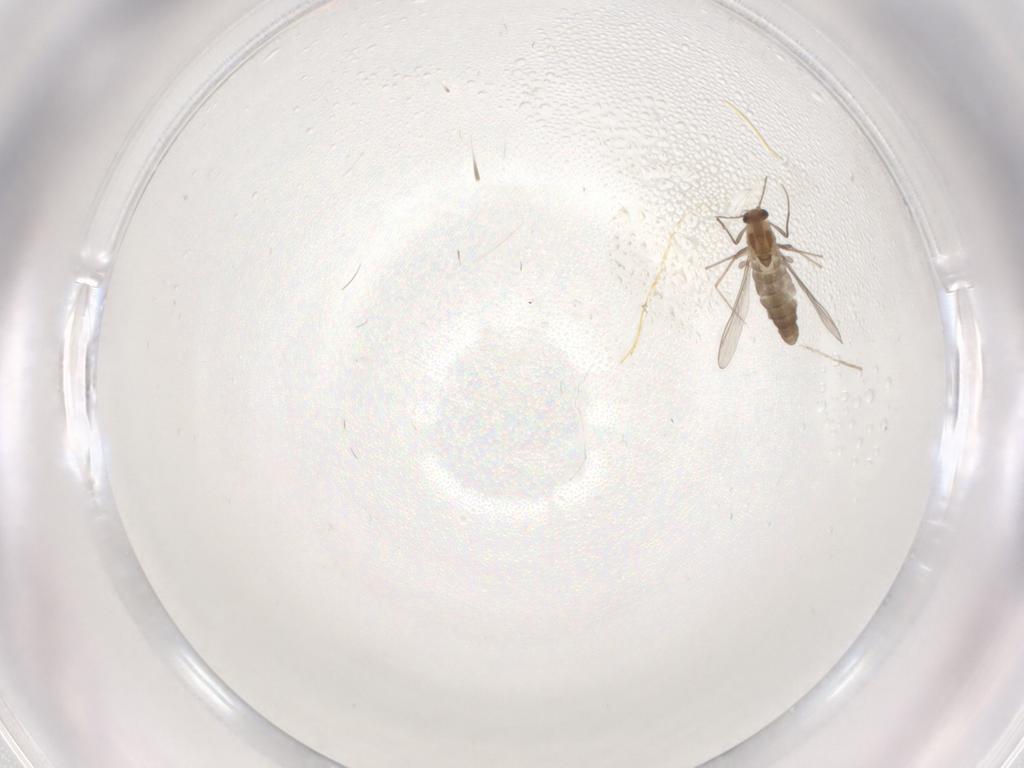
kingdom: Animalia
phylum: Arthropoda
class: Insecta
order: Diptera
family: Chironomidae
